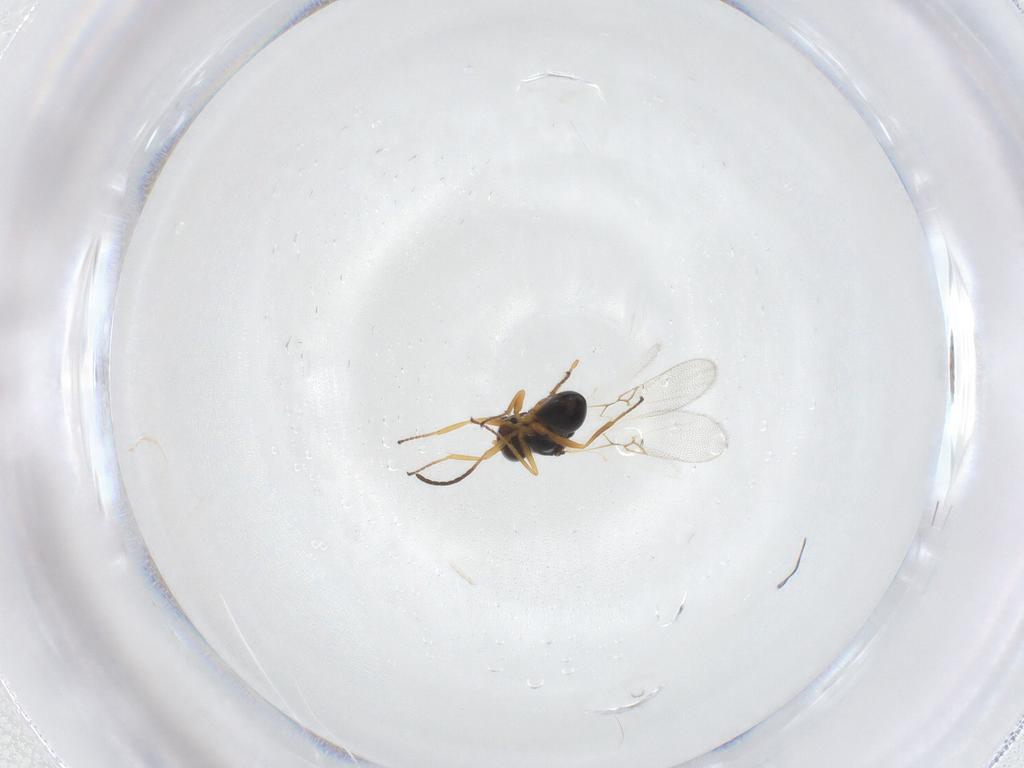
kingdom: Animalia
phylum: Arthropoda
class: Insecta
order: Hymenoptera
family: Figitidae
